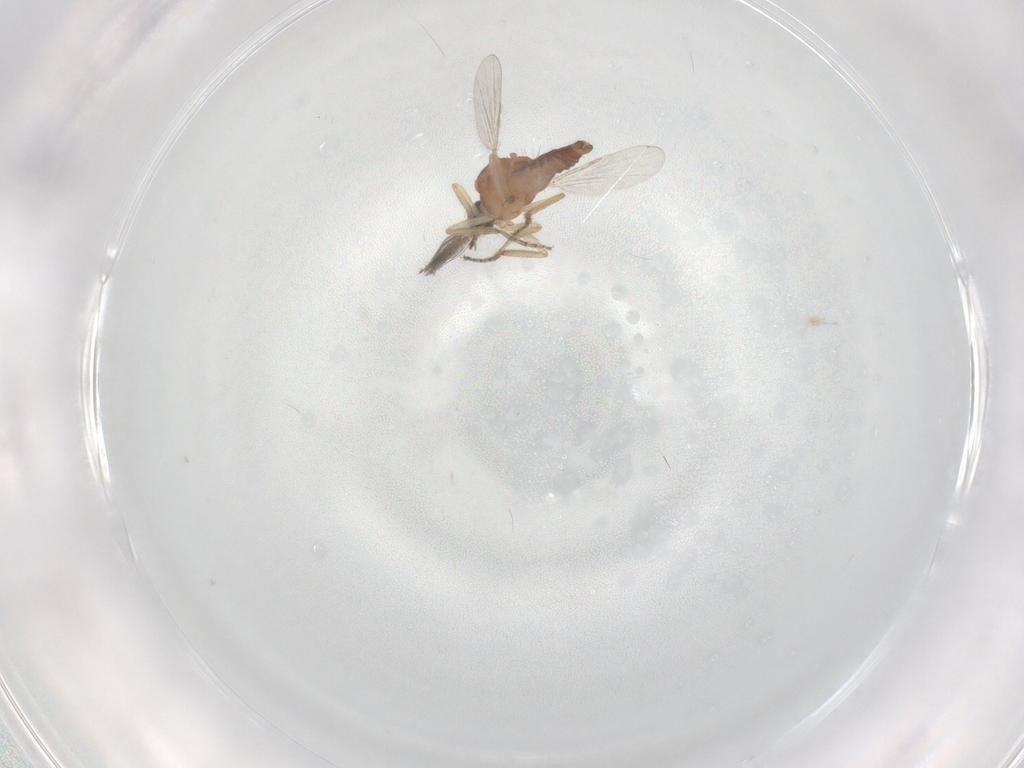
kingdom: Animalia
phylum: Arthropoda
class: Insecta
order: Diptera
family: Ceratopogonidae
